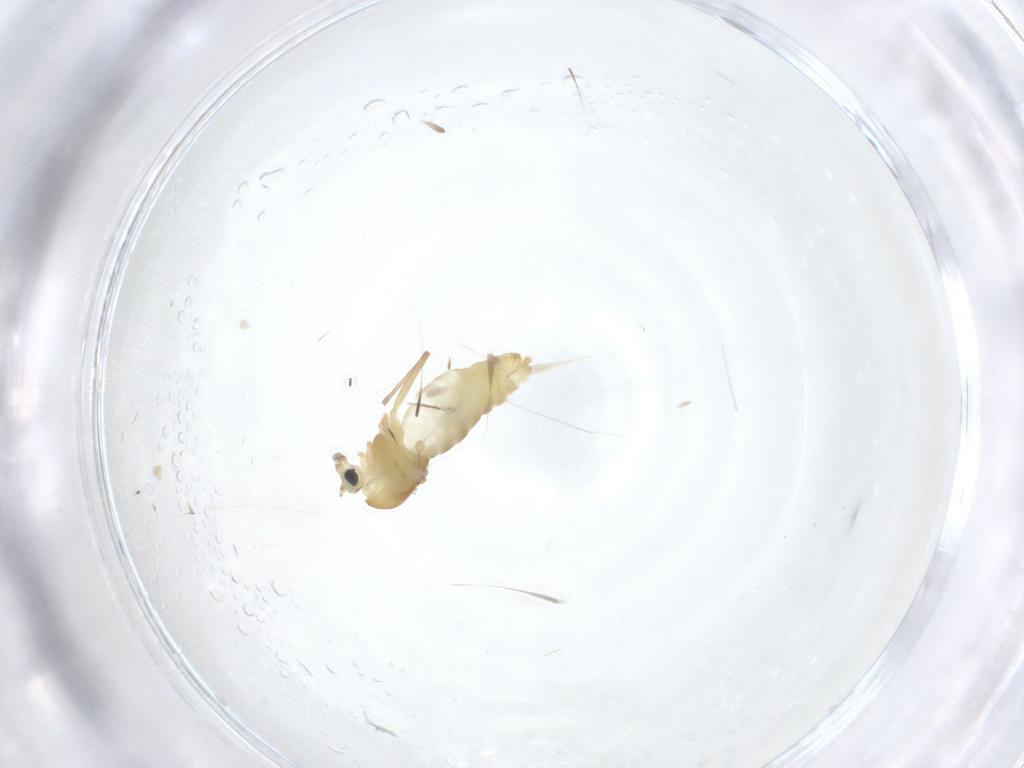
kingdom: Animalia
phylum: Arthropoda
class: Insecta
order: Diptera
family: Chironomidae
